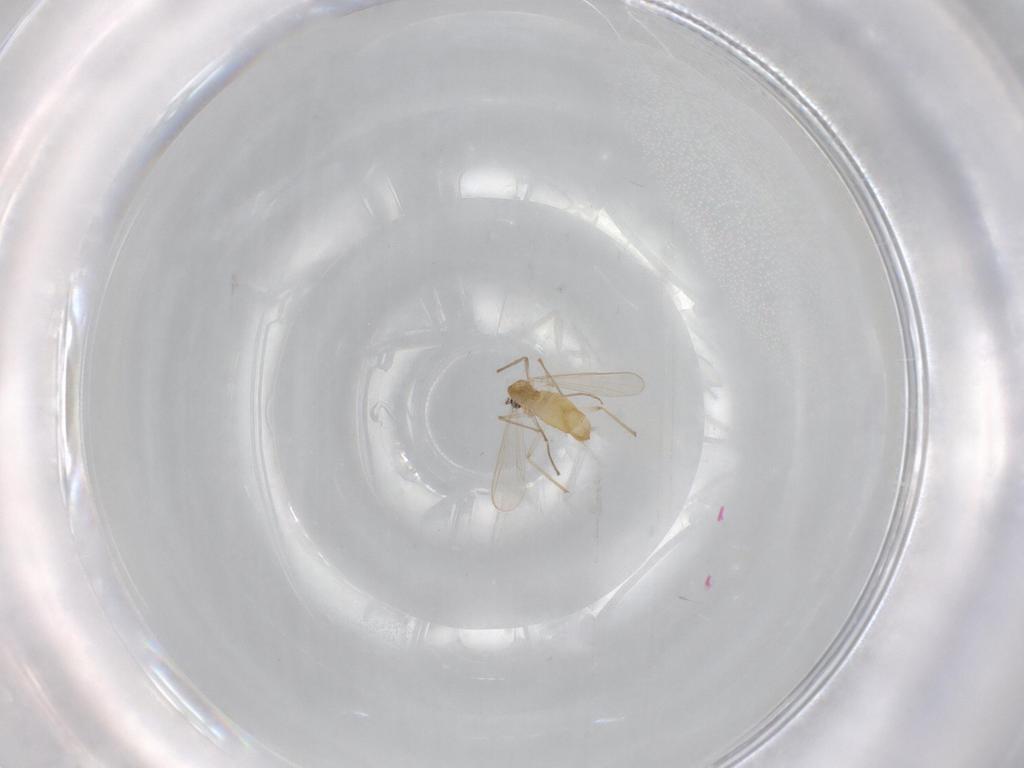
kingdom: Animalia
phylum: Arthropoda
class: Insecta
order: Diptera
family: Chironomidae
